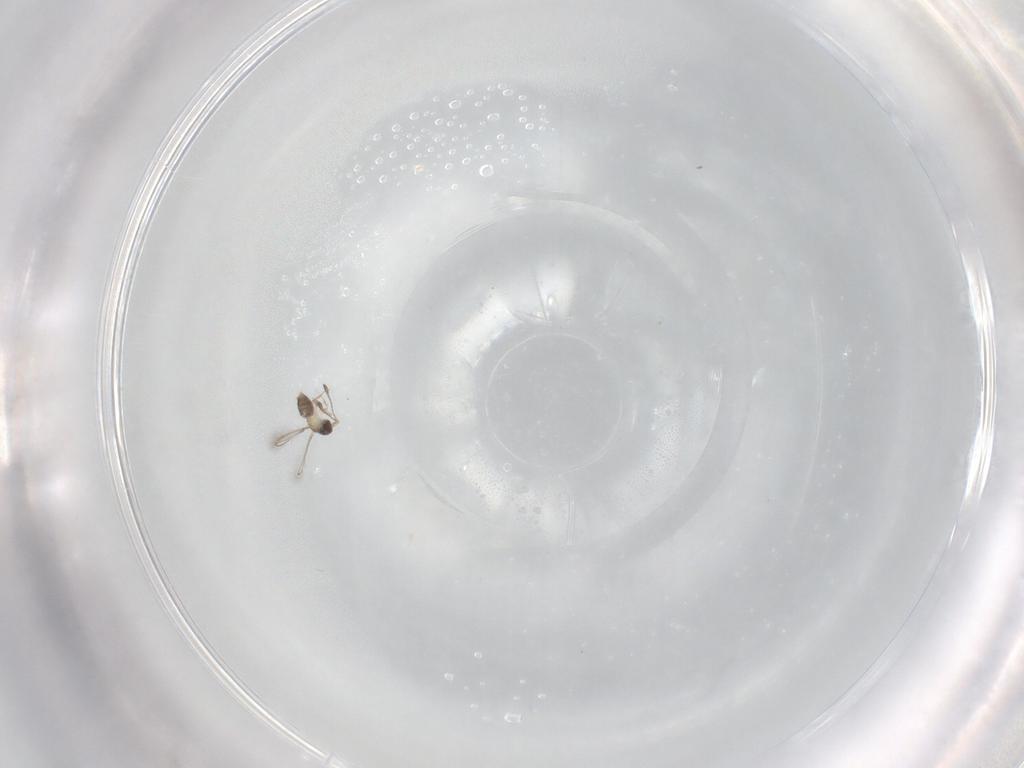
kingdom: Animalia
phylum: Arthropoda
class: Insecta
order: Hymenoptera
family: Mymaridae
